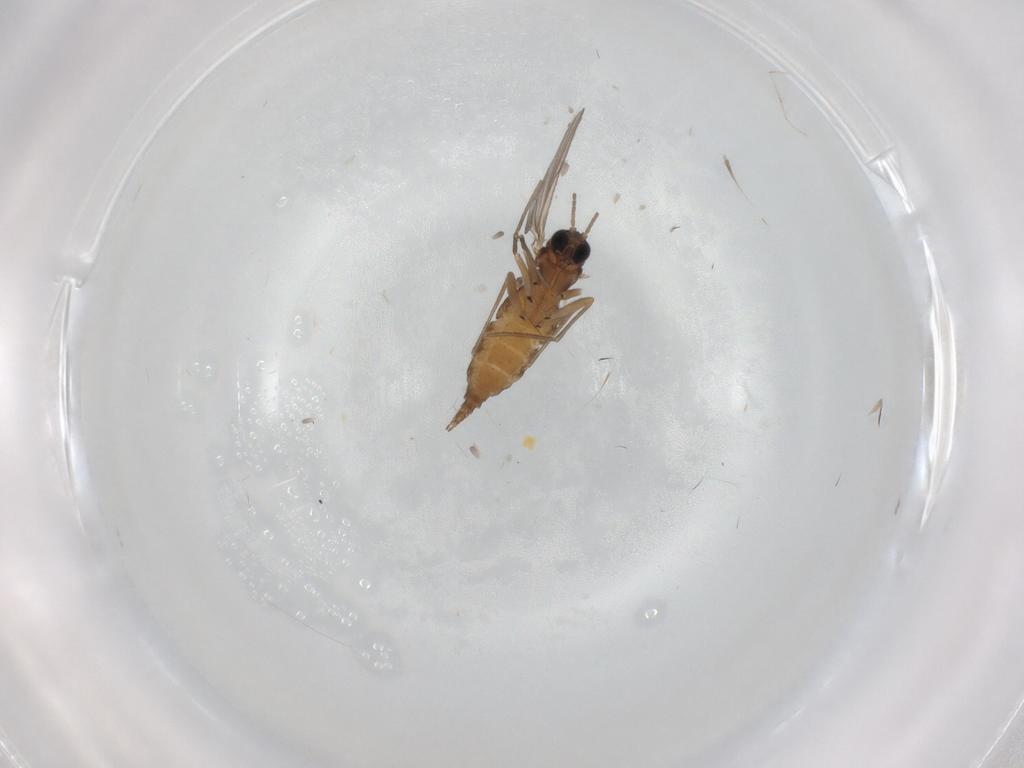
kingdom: Animalia
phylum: Arthropoda
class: Insecta
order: Diptera
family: Sciaridae
